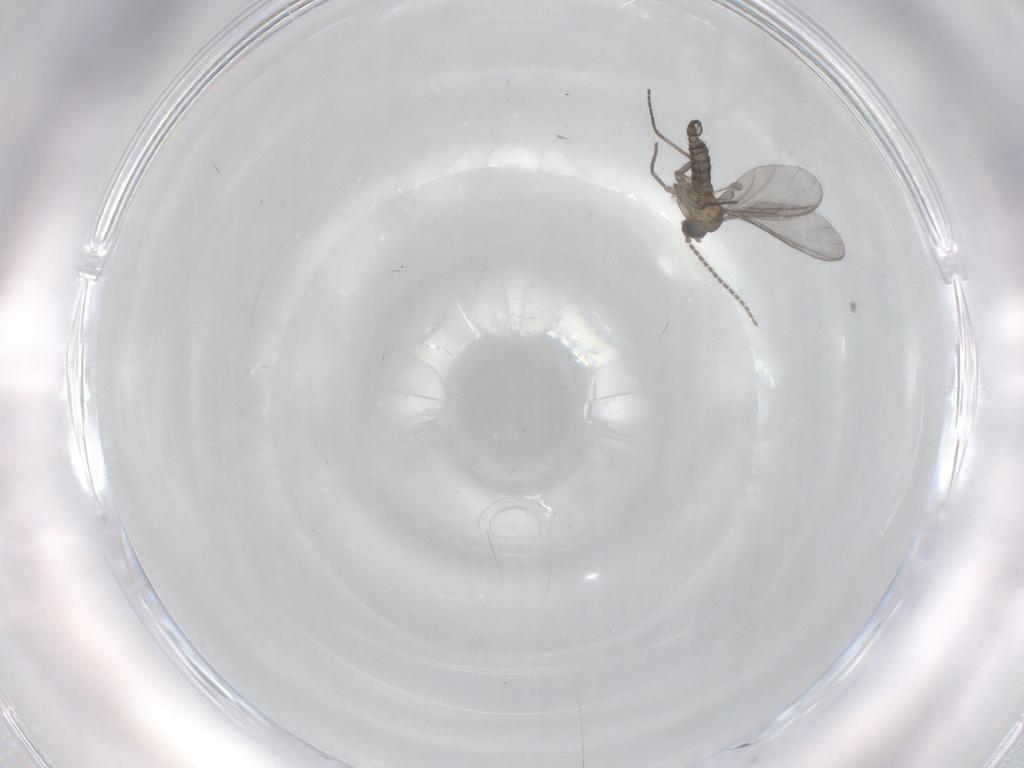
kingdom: Animalia
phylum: Arthropoda
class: Insecta
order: Diptera
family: Sciaridae
